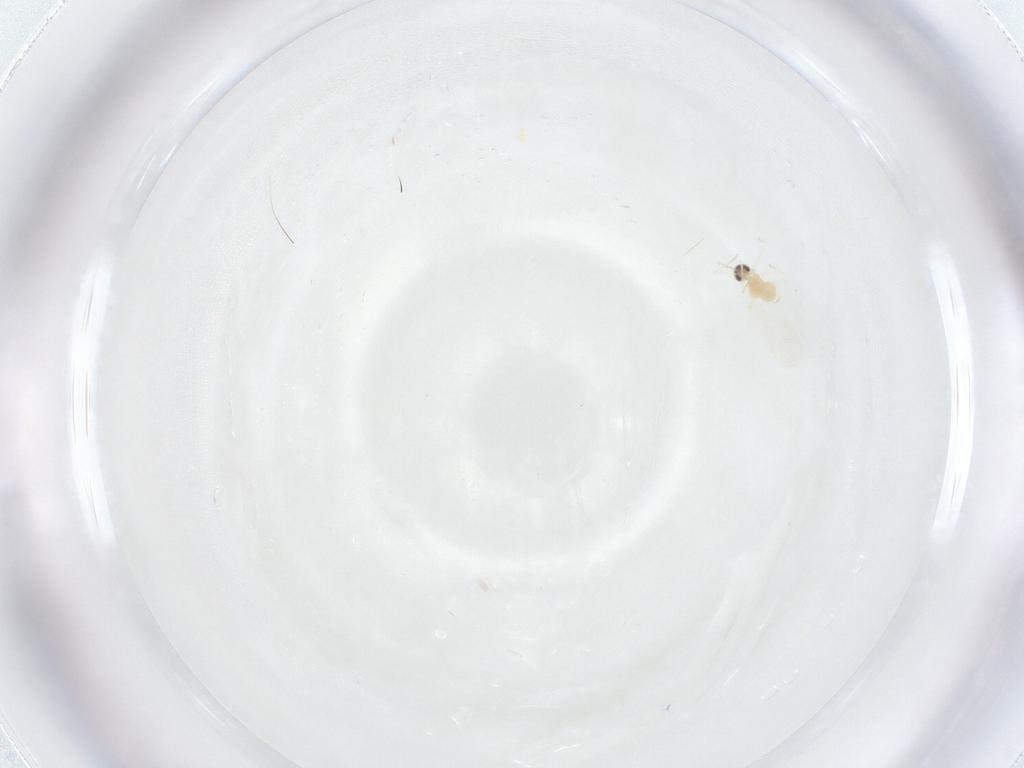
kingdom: Animalia
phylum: Arthropoda
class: Insecta
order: Diptera
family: Cecidomyiidae
